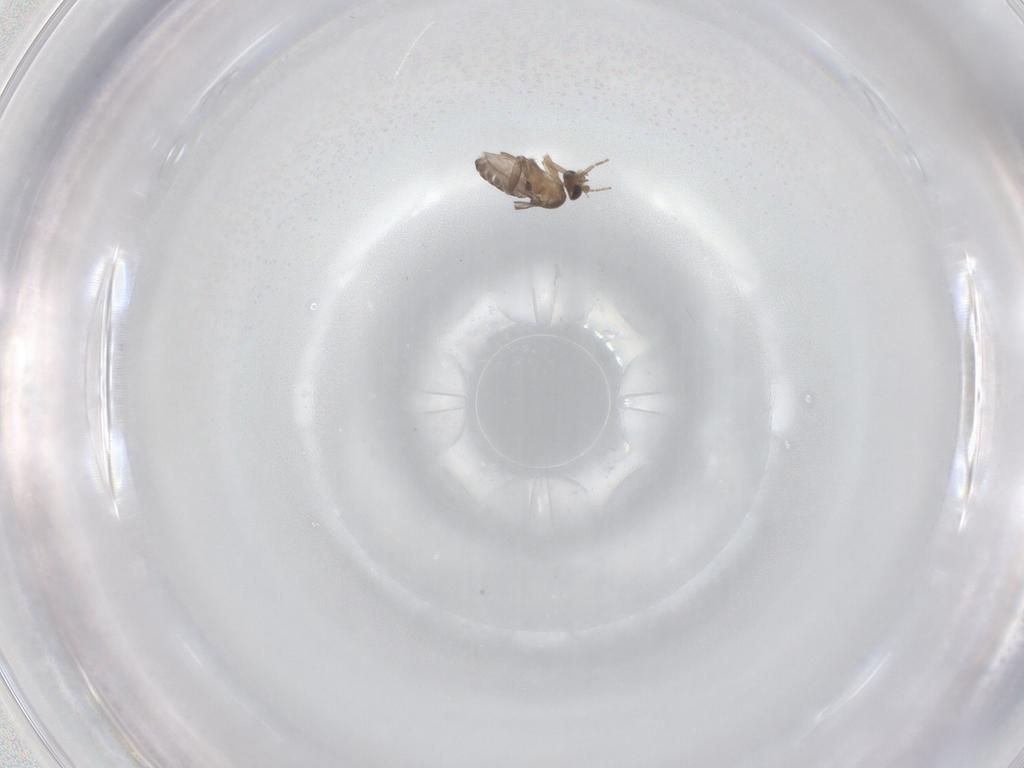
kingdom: Animalia
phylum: Arthropoda
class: Insecta
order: Diptera
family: Phoridae
